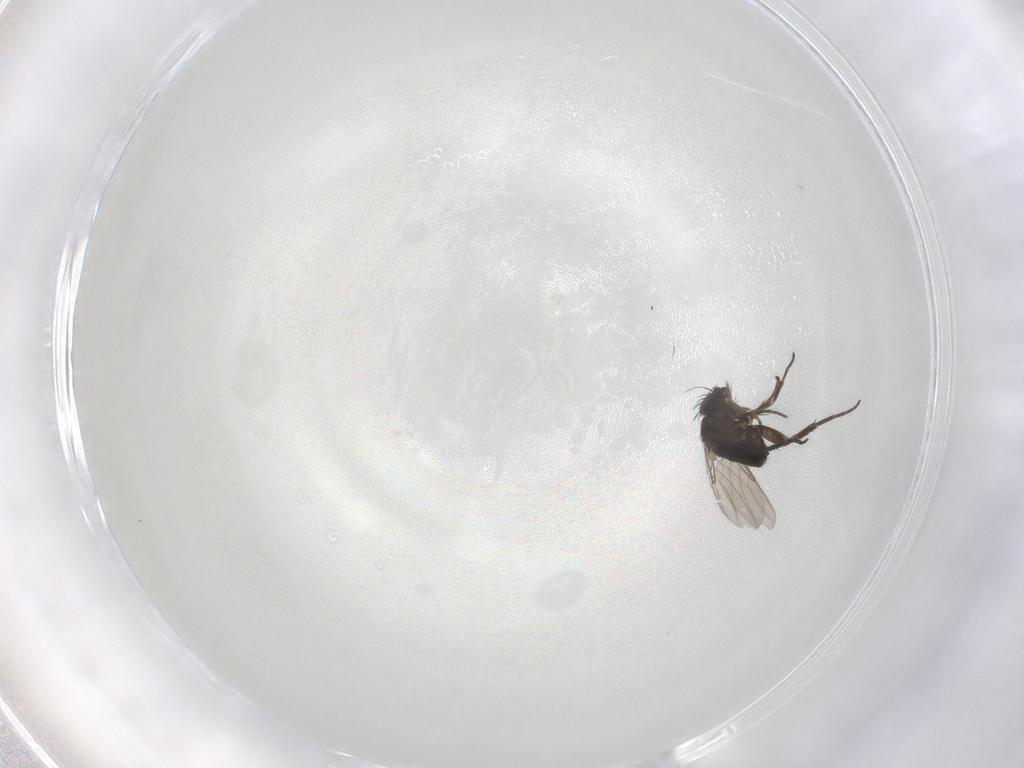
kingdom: Animalia
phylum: Arthropoda
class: Insecta
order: Diptera
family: Phoridae
